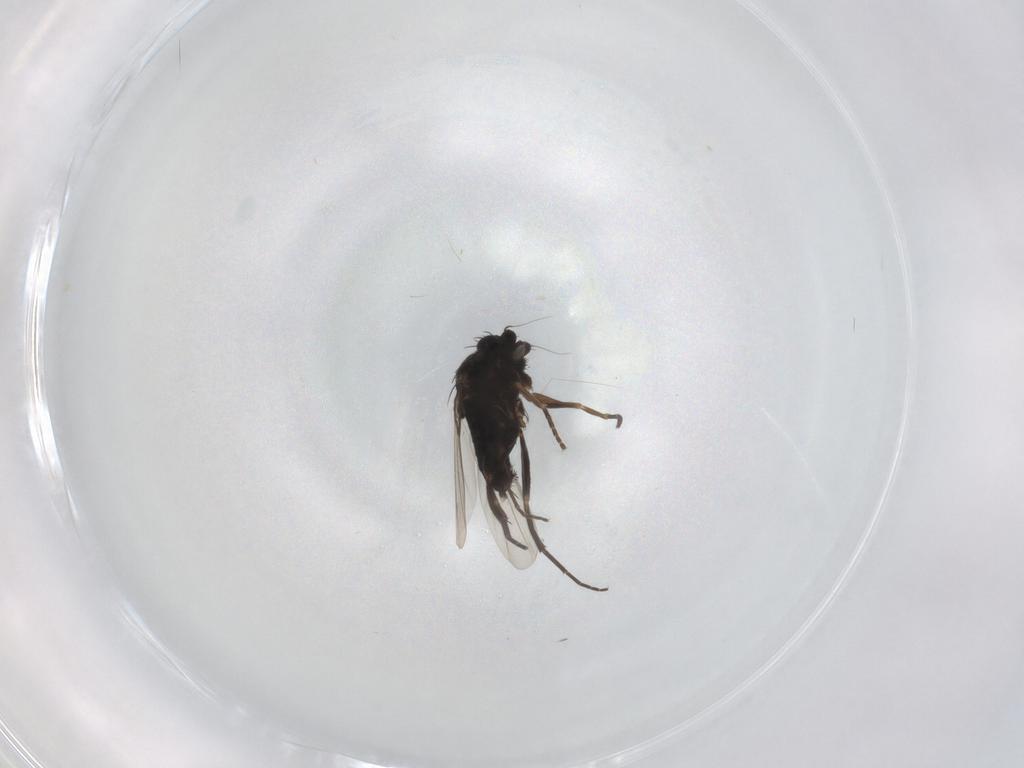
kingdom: Animalia
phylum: Arthropoda
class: Insecta
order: Diptera
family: Phoridae
